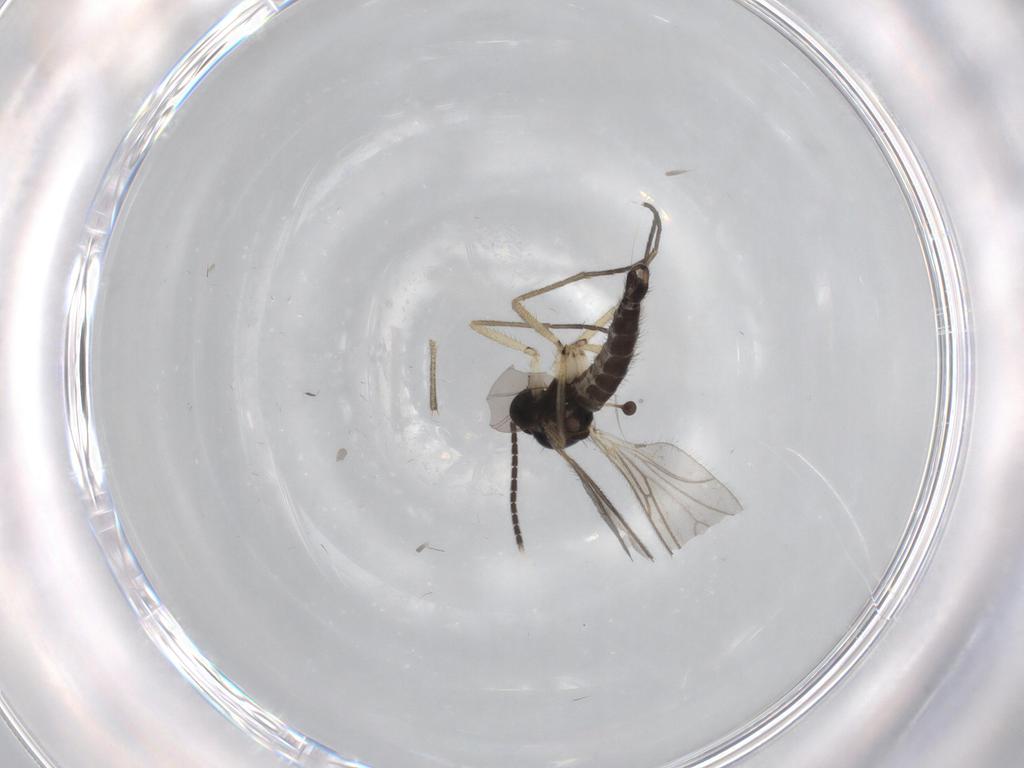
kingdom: Animalia
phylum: Arthropoda
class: Insecta
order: Diptera
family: Sciaridae
